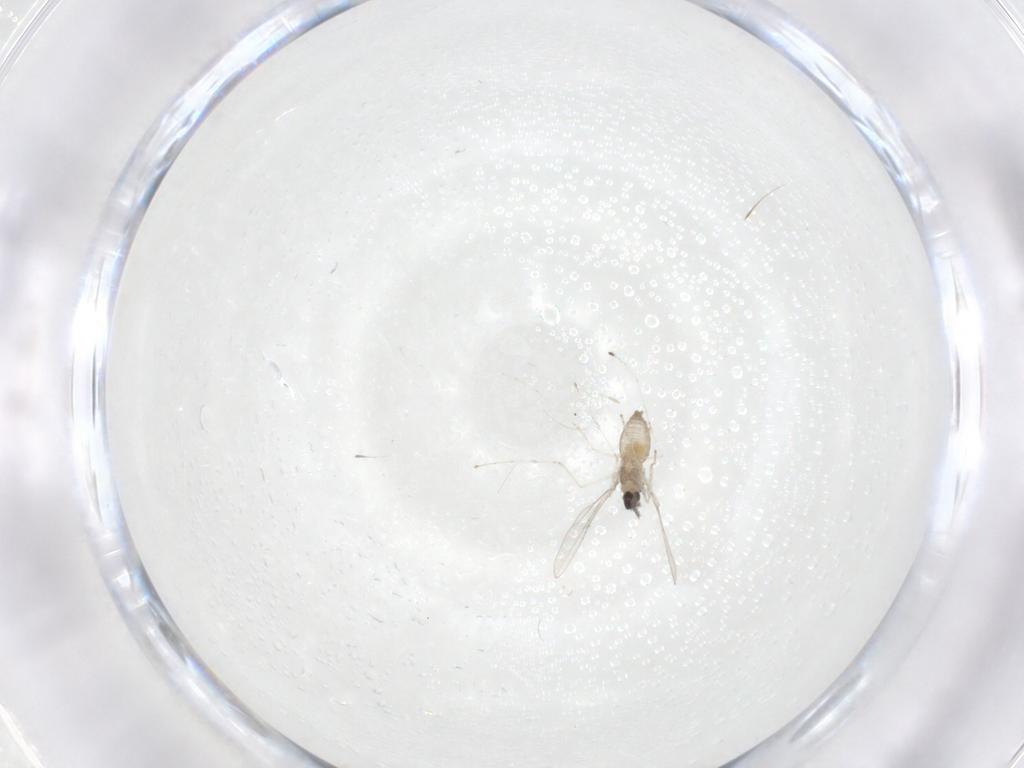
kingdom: Animalia
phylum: Arthropoda
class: Insecta
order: Diptera
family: Cecidomyiidae
